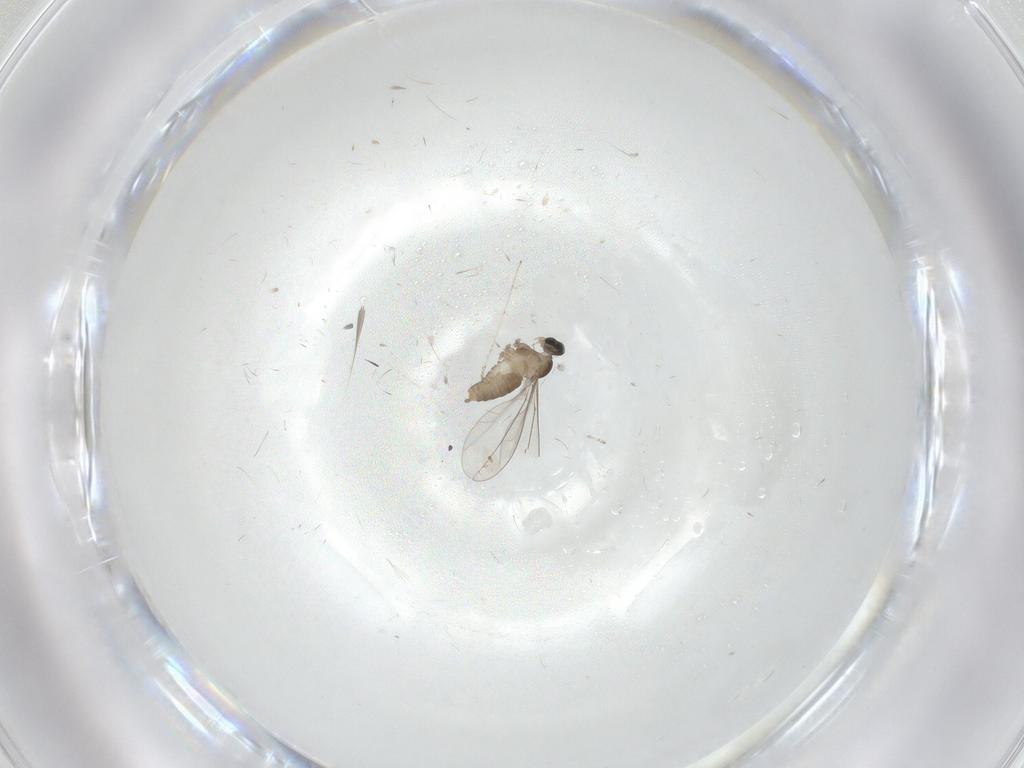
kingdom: Animalia
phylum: Arthropoda
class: Insecta
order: Diptera
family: Cecidomyiidae
